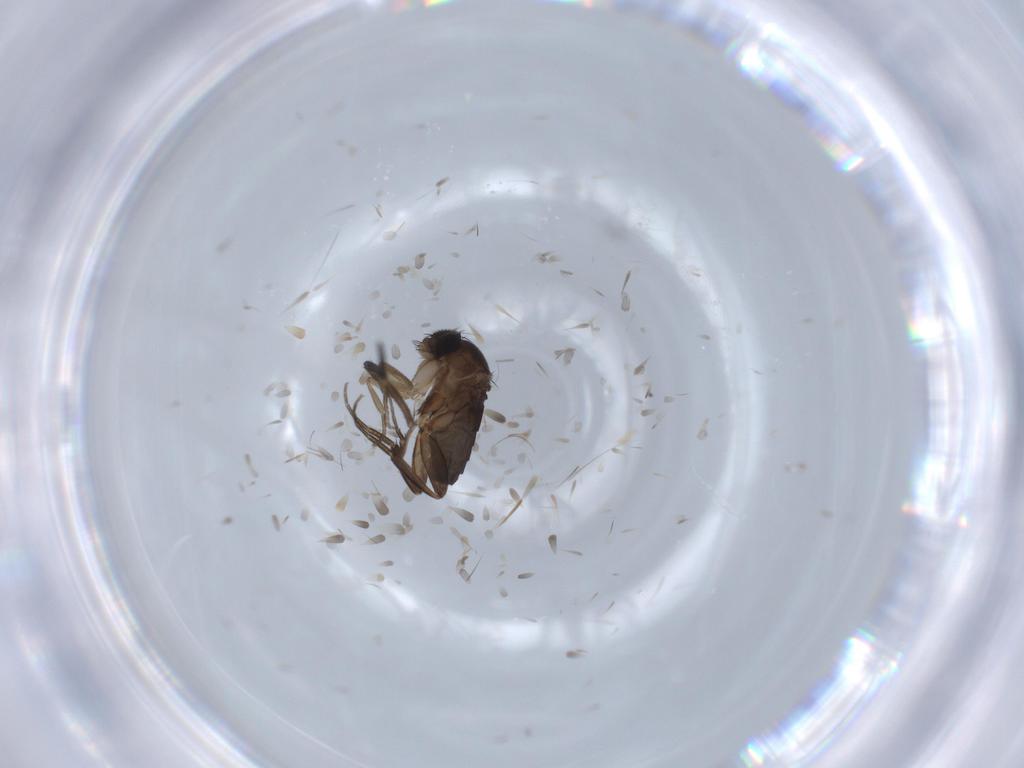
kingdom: Animalia
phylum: Arthropoda
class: Insecta
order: Diptera
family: Phoridae
